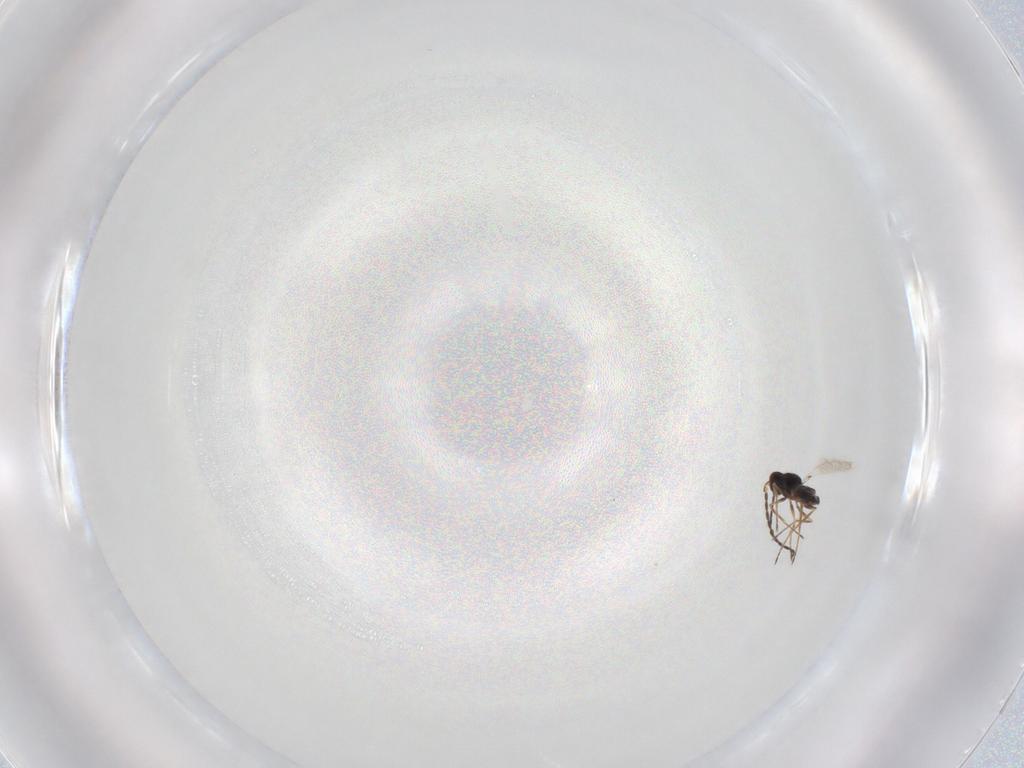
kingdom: Animalia
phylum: Arthropoda
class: Insecta
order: Hymenoptera
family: Mymaridae
